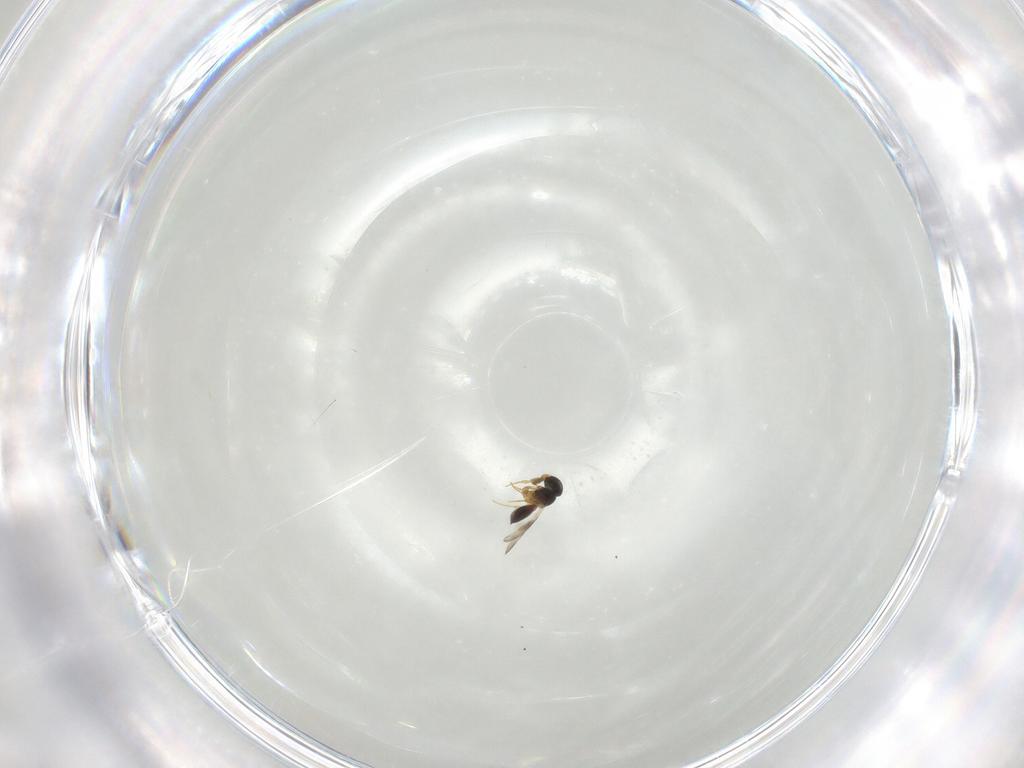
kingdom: Animalia
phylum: Arthropoda
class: Insecta
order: Hymenoptera
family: Platygastridae
